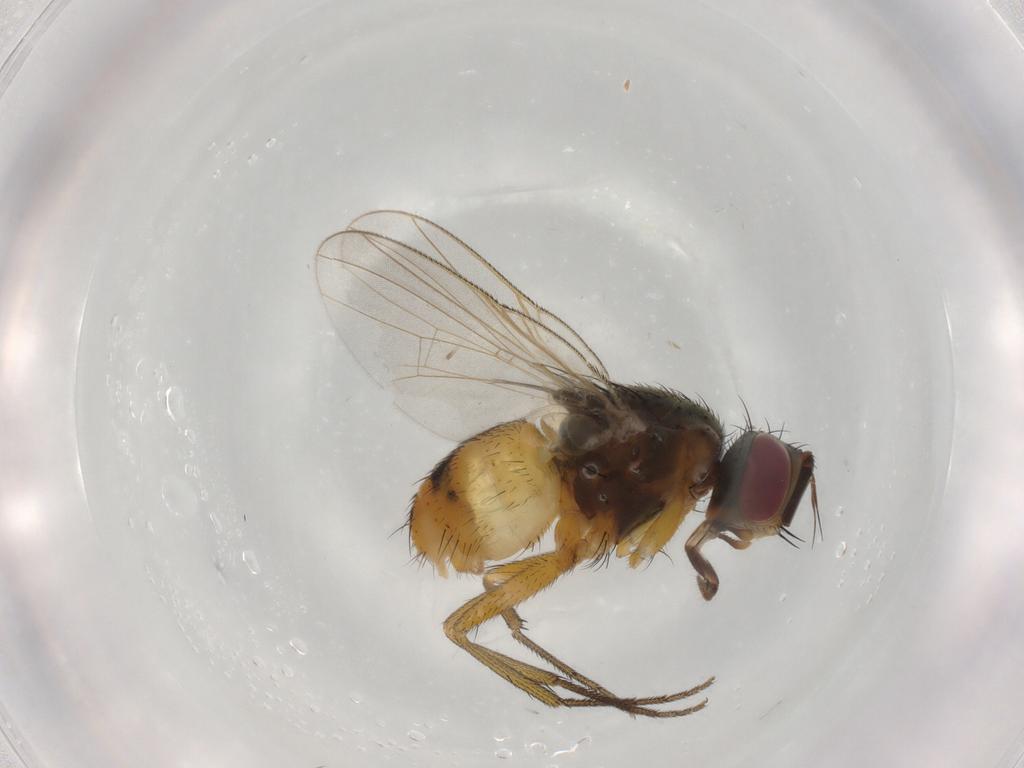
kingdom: Animalia
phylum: Arthropoda
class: Insecta
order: Diptera
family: Muscidae
